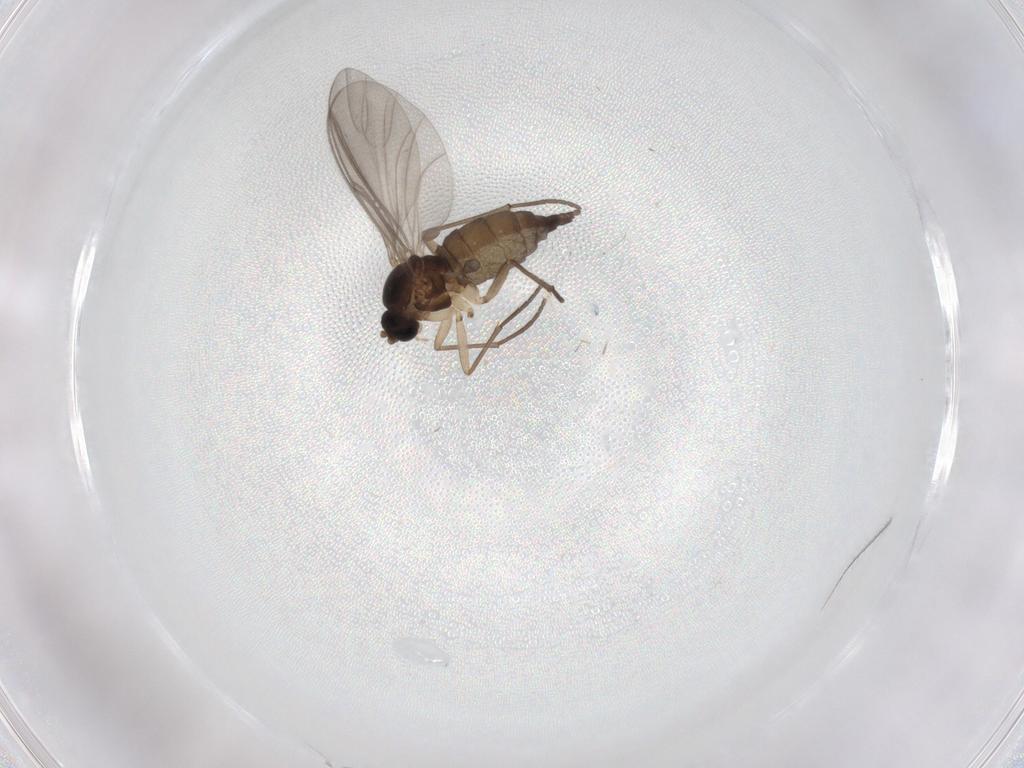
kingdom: Animalia
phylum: Arthropoda
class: Insecta
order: Diptera
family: Sciaridae
